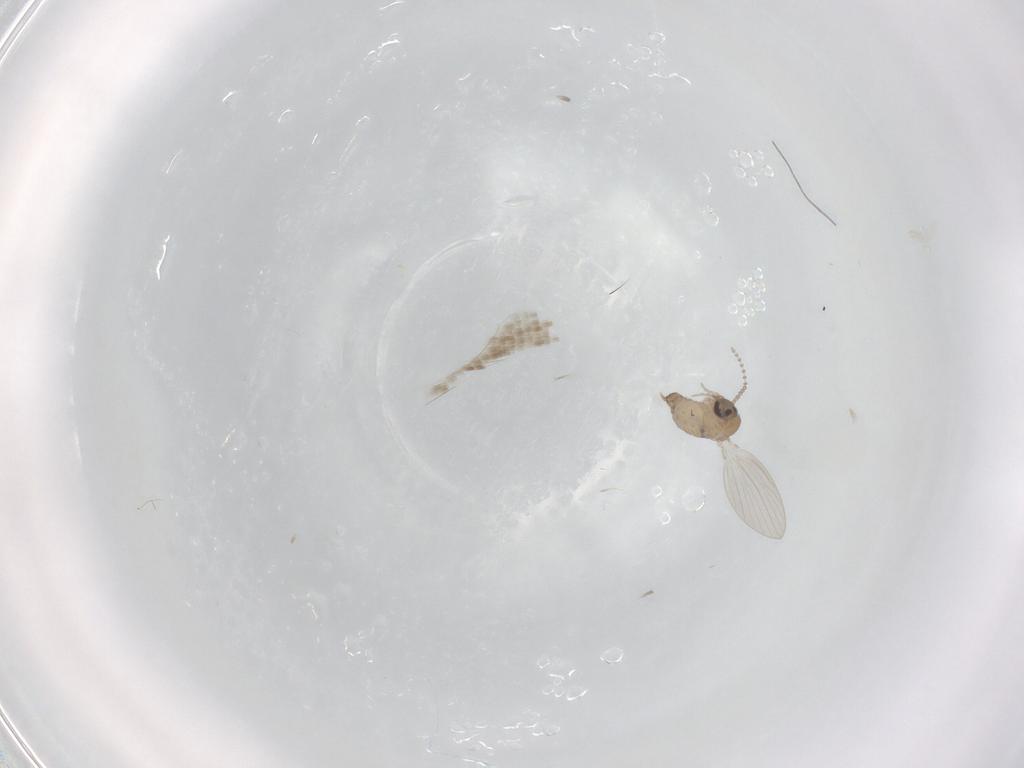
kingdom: Animalia
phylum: Arthropoda
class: Insecta
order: Diptera
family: Psychodidae
